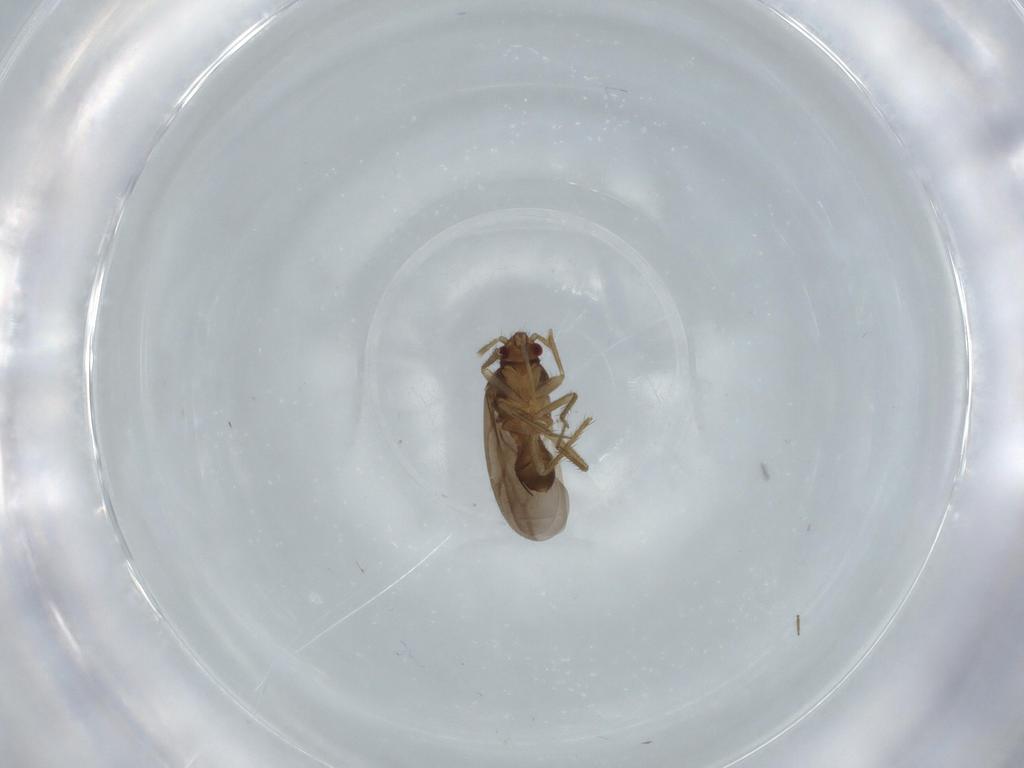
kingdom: Animalia
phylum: Arthropoda
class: Insecta
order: Hemiptera
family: Ceratocombidae
